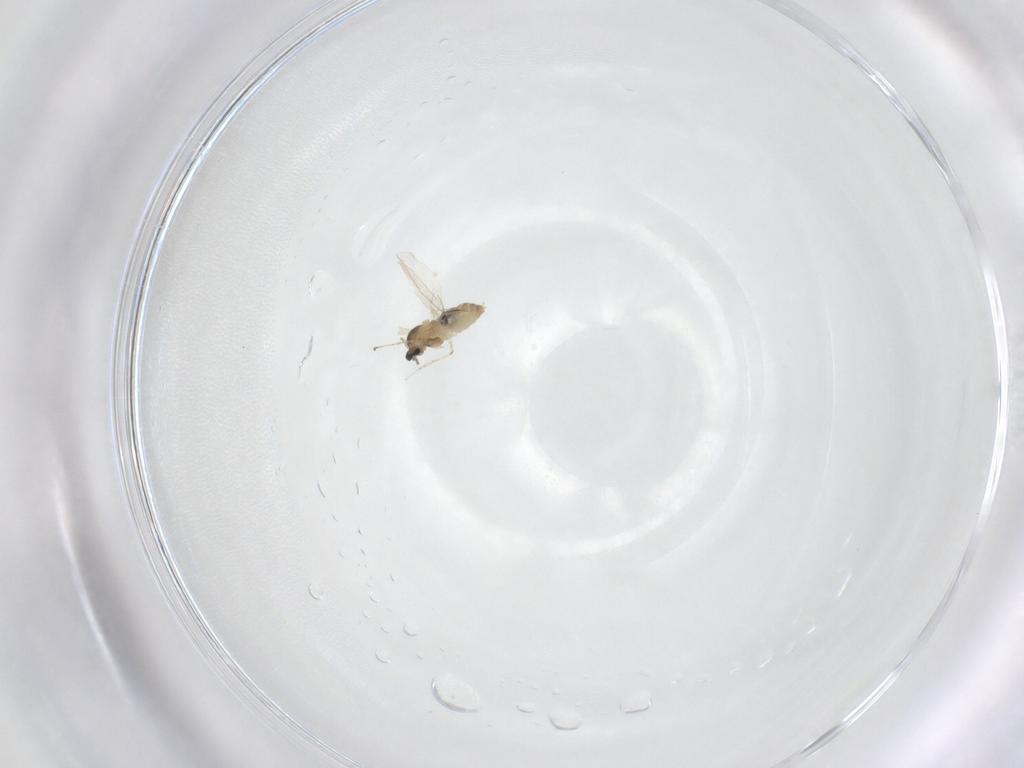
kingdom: Animalia
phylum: Arthropoda
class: Insecta
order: Diptera
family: Cecidomyiidae
